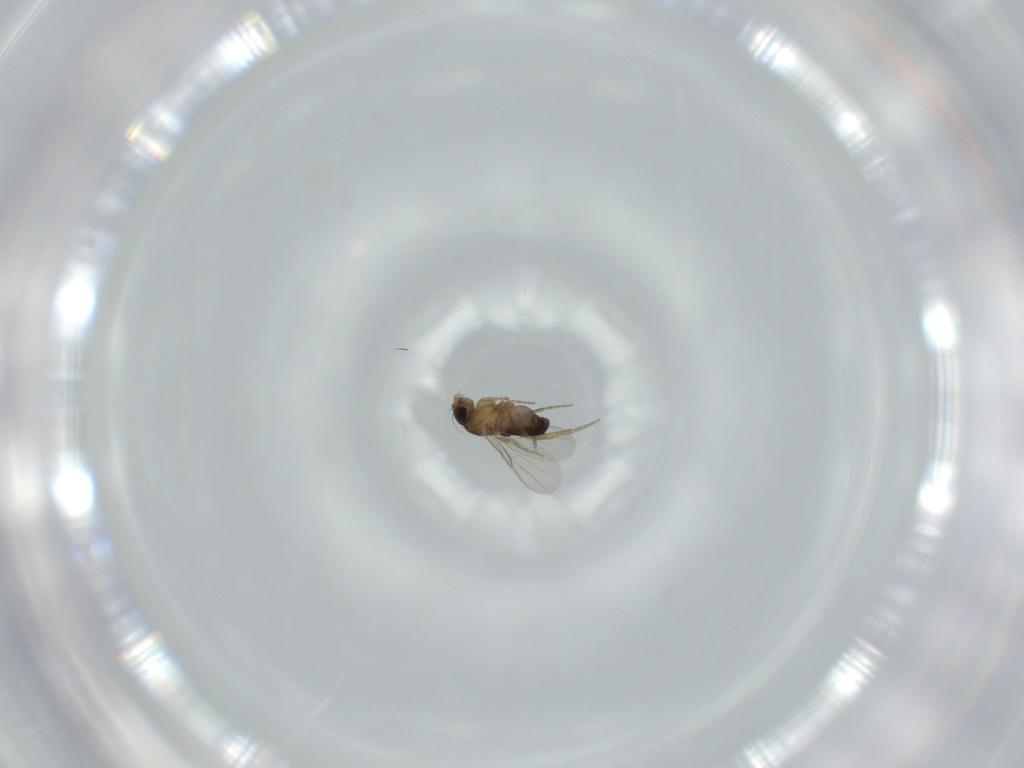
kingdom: Animalia
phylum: Arthropoda
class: Insecta
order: Diptera
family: Phoridae
